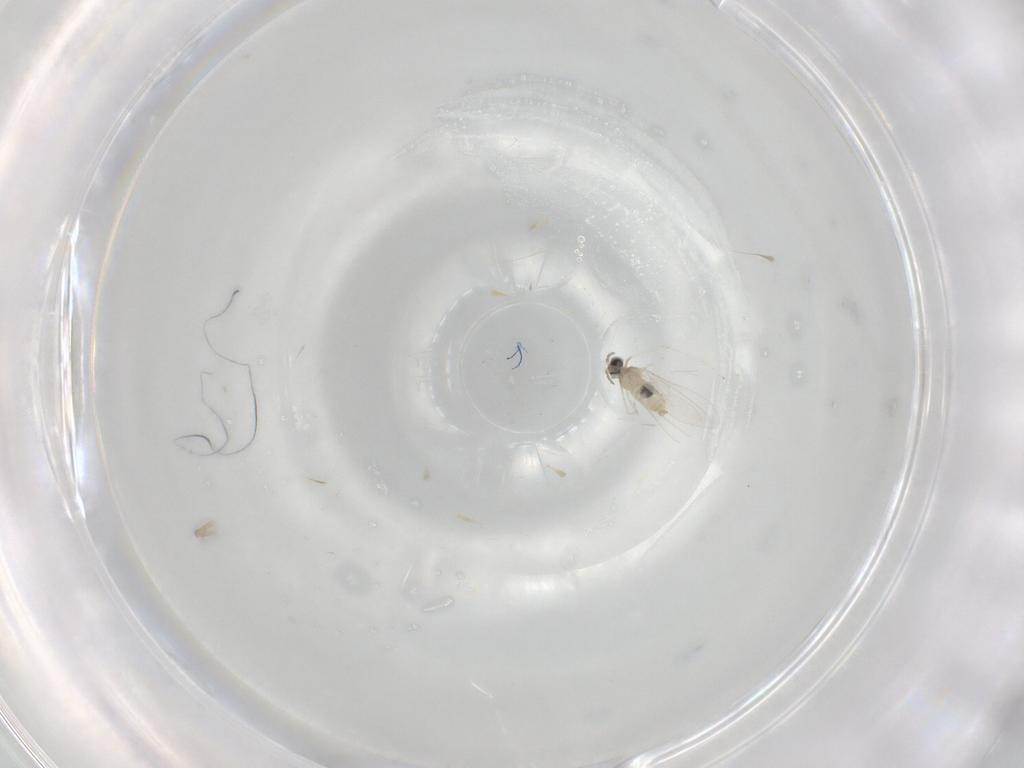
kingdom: Animalia
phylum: Arthropoda
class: Insecta
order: Diptera
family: Cecidomyiidae
